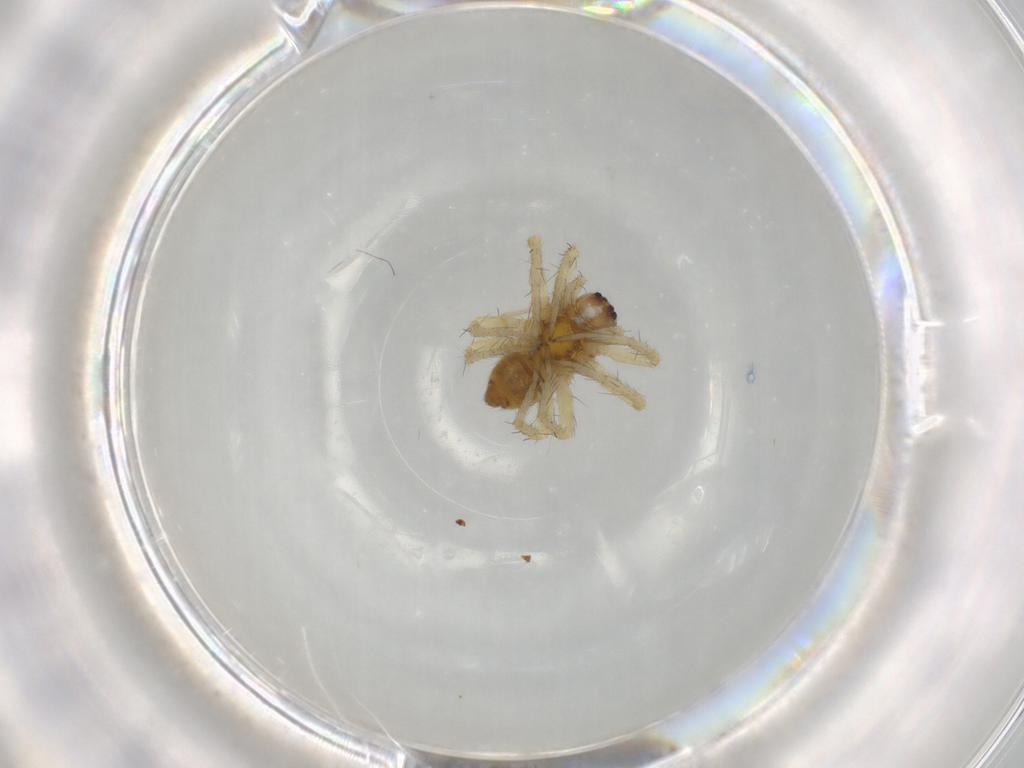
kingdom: Animalia
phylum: Arthropoda
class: Arachnida
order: Araneae
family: Pisauridae
